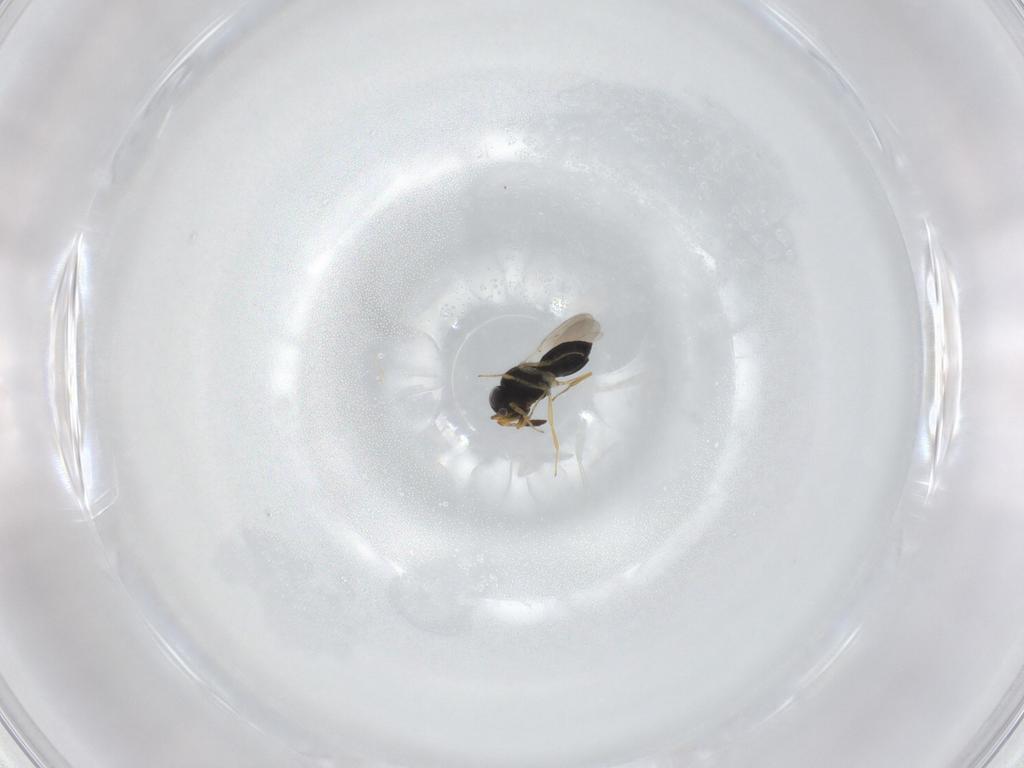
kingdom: Animalia
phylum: Arthropoda
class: Insecta
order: Hymenoptera
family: Scelionidae
